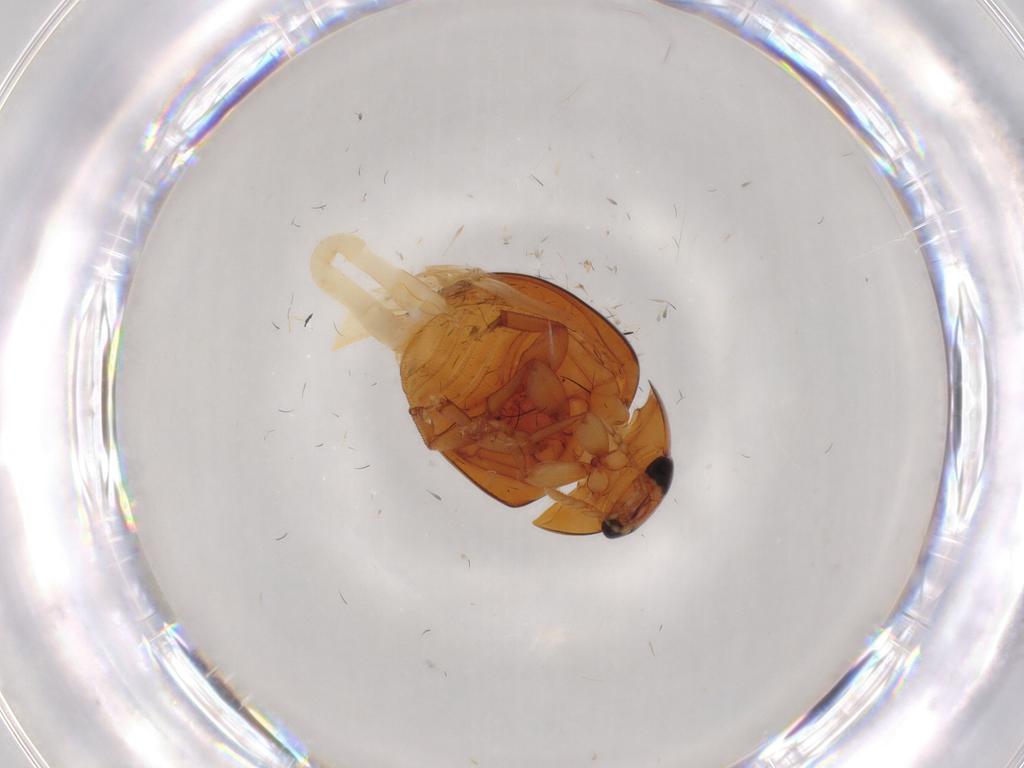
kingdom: Animalia
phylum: Arthropoda
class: Insecta
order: Coleoptera
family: Phalacridae
